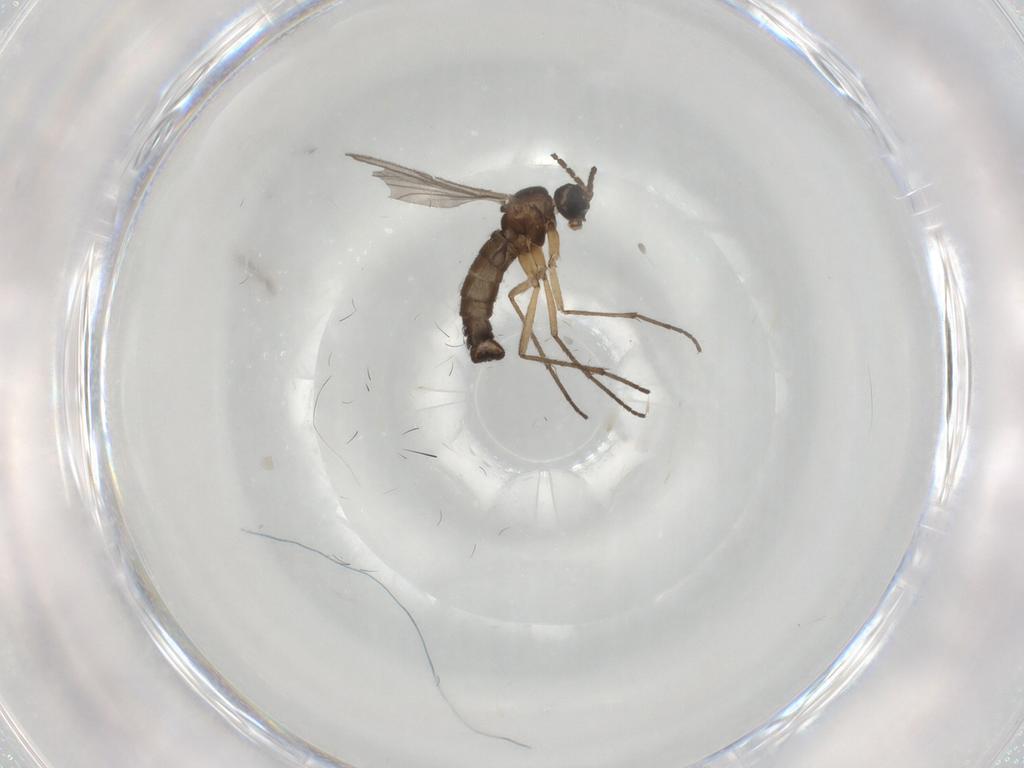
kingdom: Animalia
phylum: Arthropoda
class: Insecta
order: Diptera
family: Sciaridae
